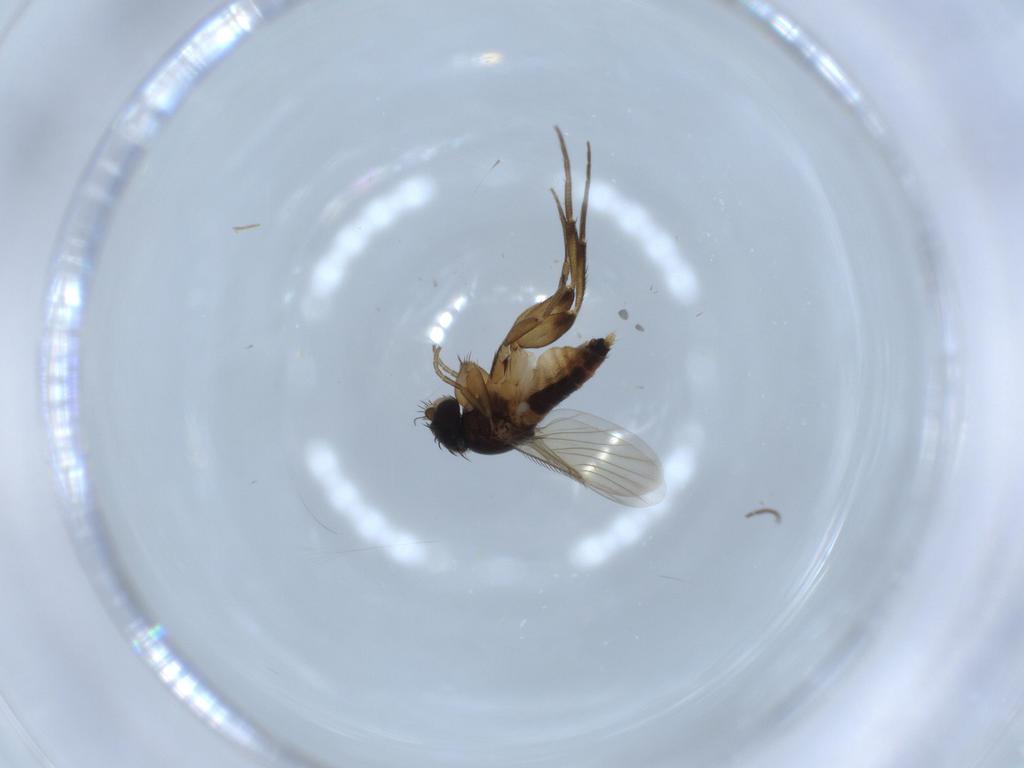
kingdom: Animalia
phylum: Arthropoda
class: Insecta
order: Diptera
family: Phoridae
